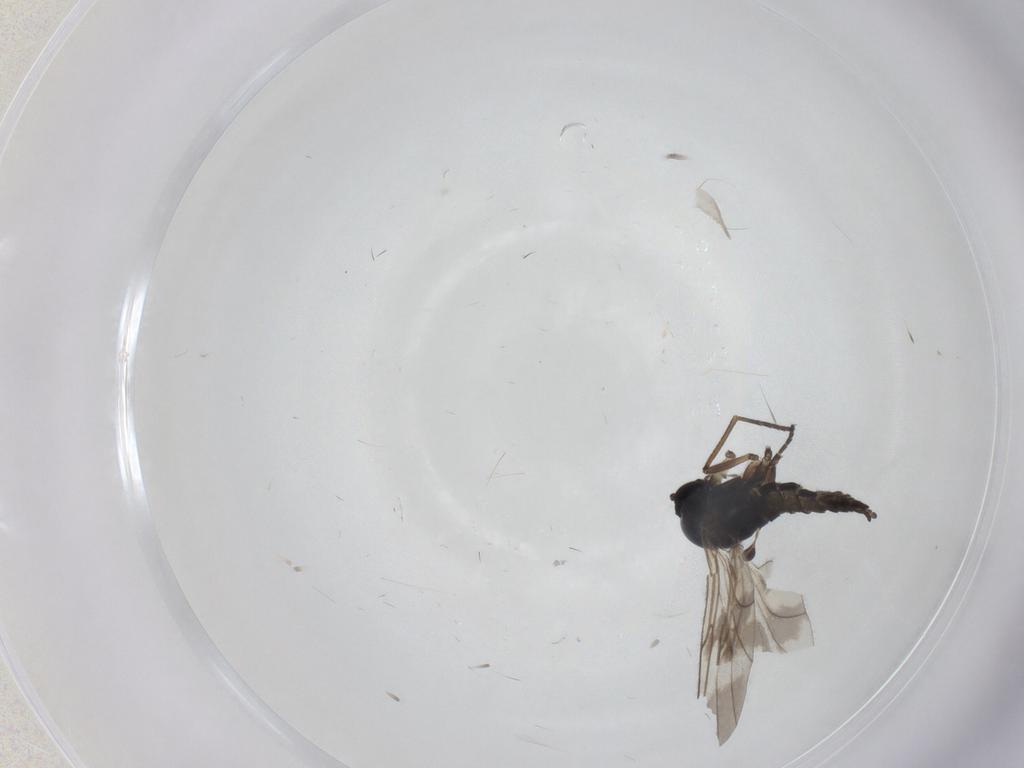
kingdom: Animalia
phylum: Arthropoda
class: Insecta
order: Diptera
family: Sciaridae
